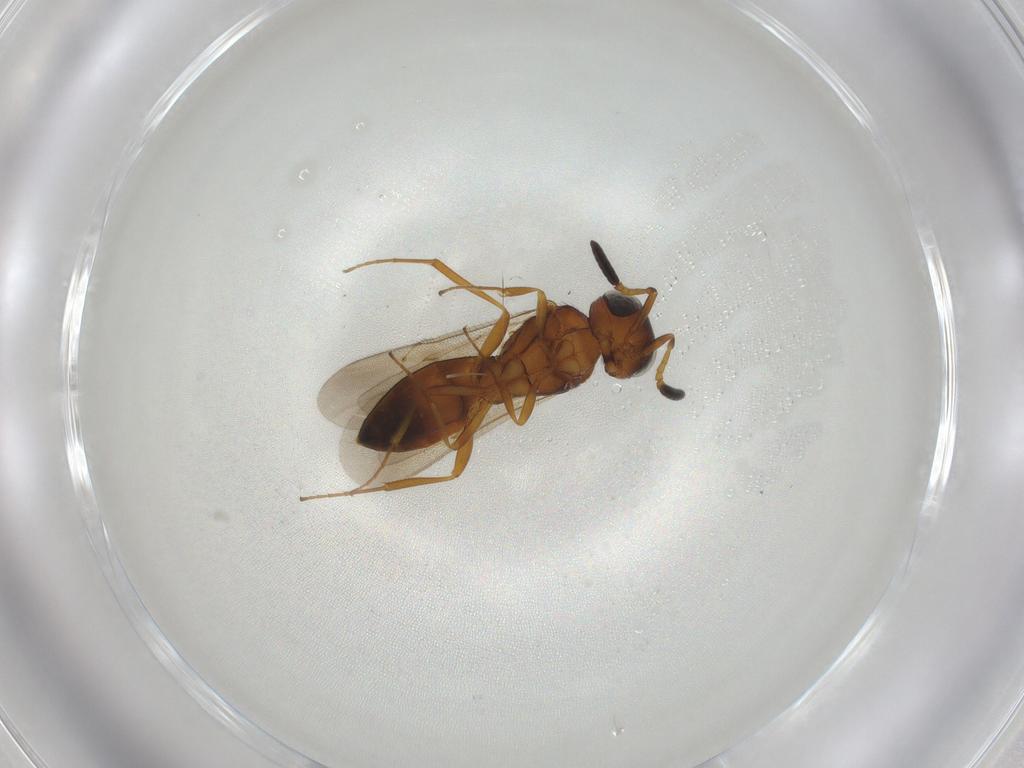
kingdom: Animalia
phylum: Arthropoda
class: Insecta
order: Hymenoptera
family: Scelionidae
